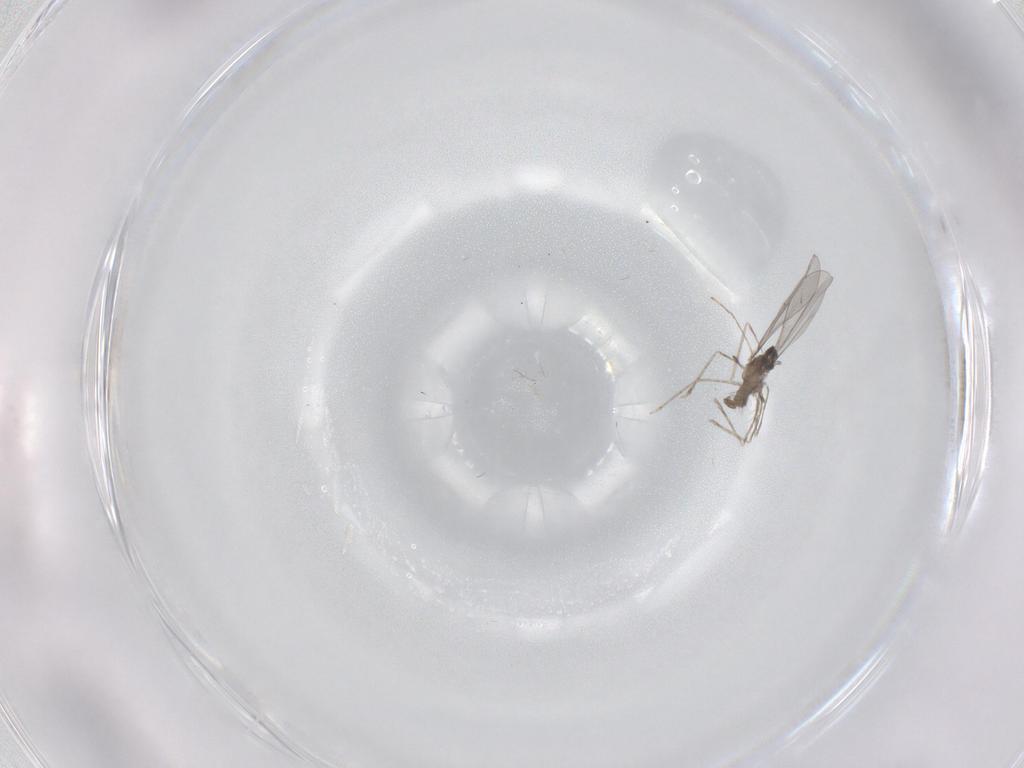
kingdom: Animalia
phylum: Arthropoda
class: Insecta
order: Diptera
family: Cecidomyiidae
